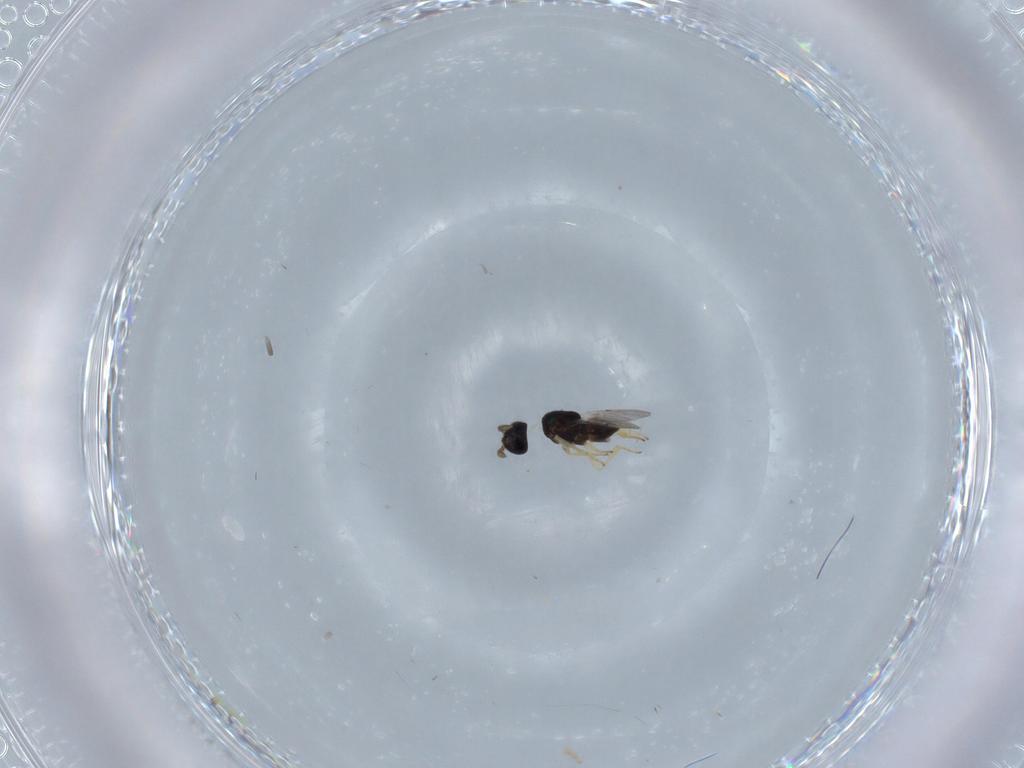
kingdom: Animalia
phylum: Arthropoda
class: Insecta
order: Hymenoptera
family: Encyrtidae
